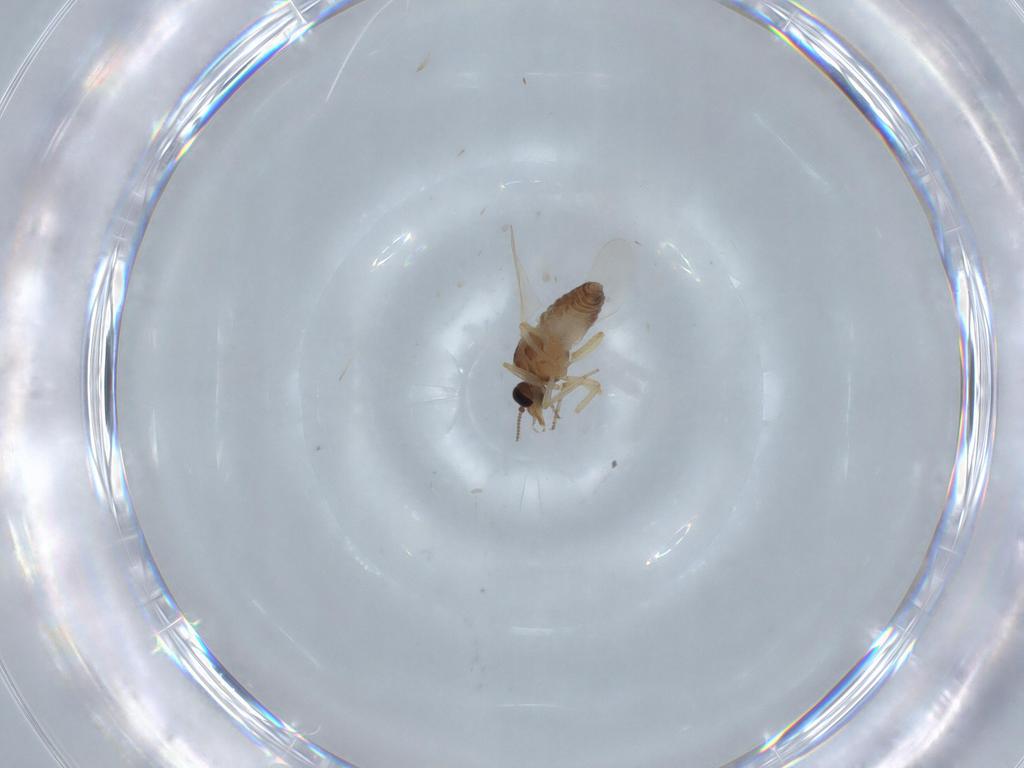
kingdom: Animalia
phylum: Arthropoda
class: Insecta
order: Diptera
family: Ceratopogonidae
